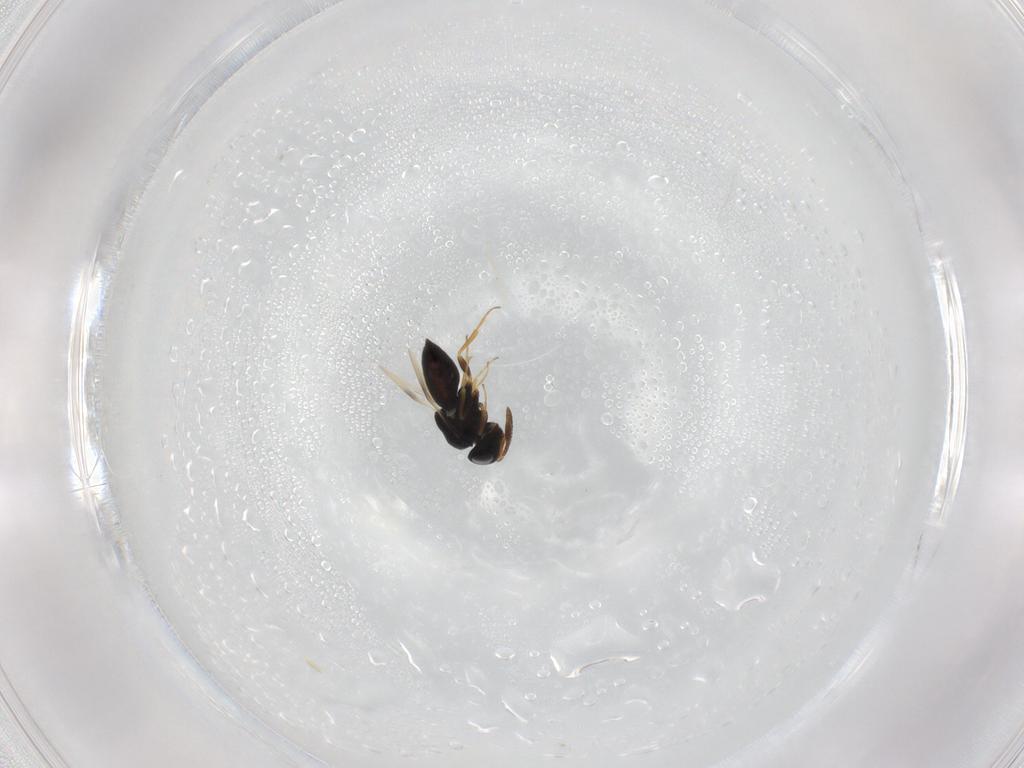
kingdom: Animalia
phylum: Arthropoda
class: Insecta
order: Hymenoptera
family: Scelionidae
